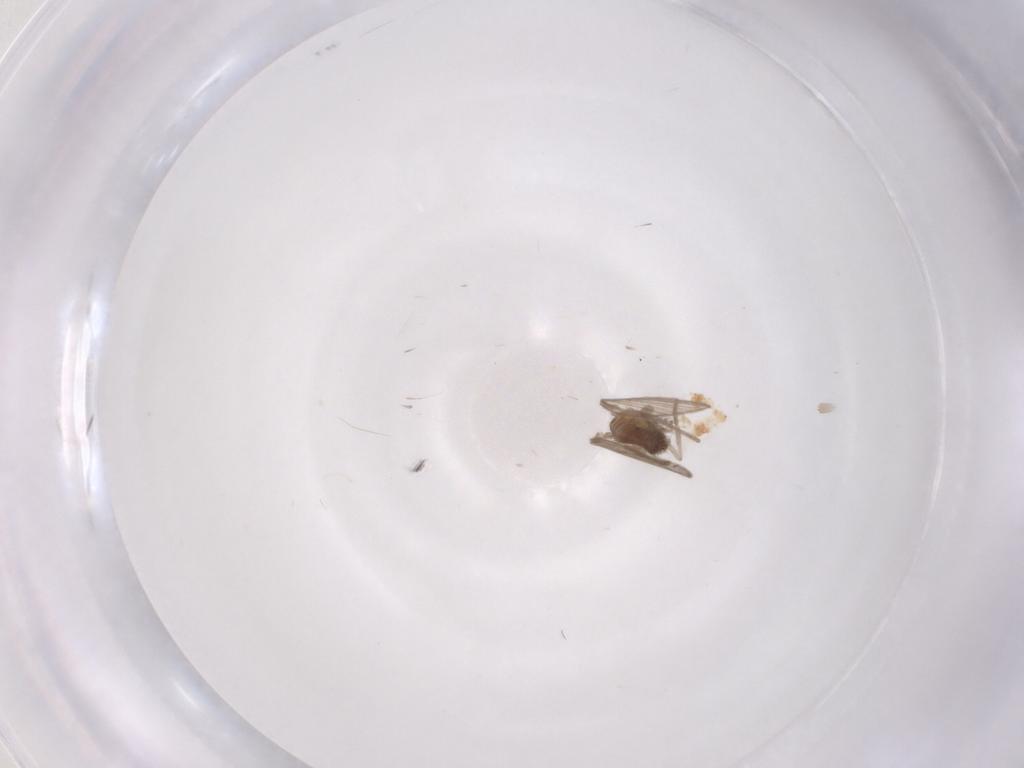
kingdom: Animalia
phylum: Arthropoda
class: Insecta
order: Diptera
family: Psychodidae
